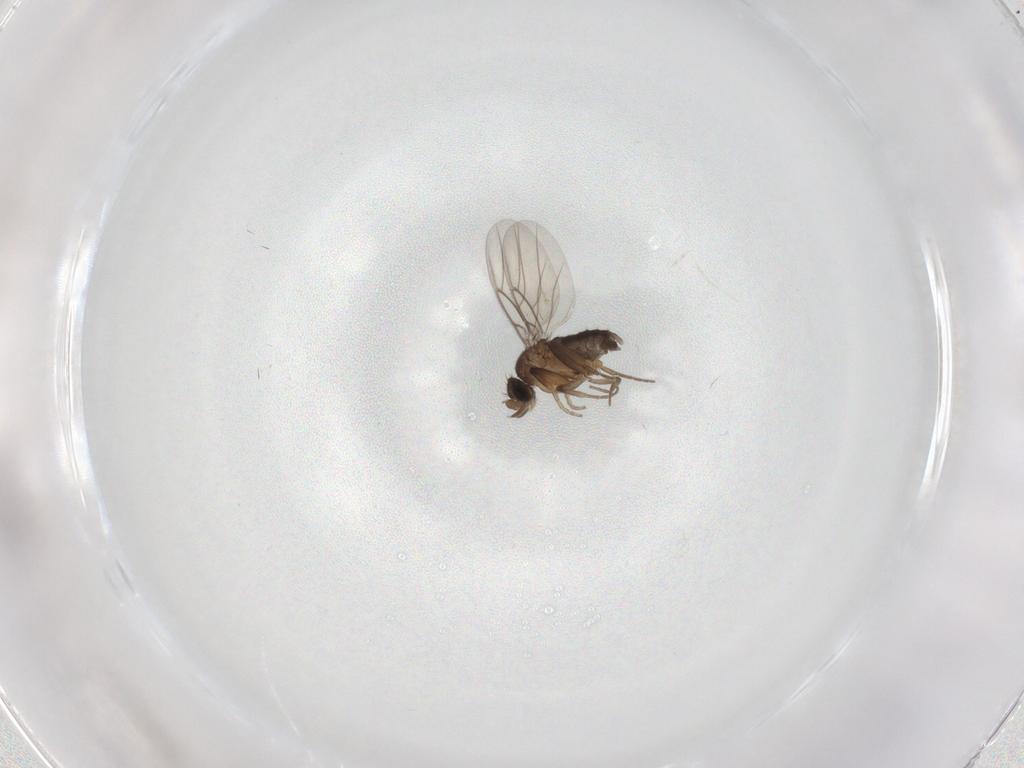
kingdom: Animalia
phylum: Arthropoda
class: Insecta
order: Diptera
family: Phoridae
